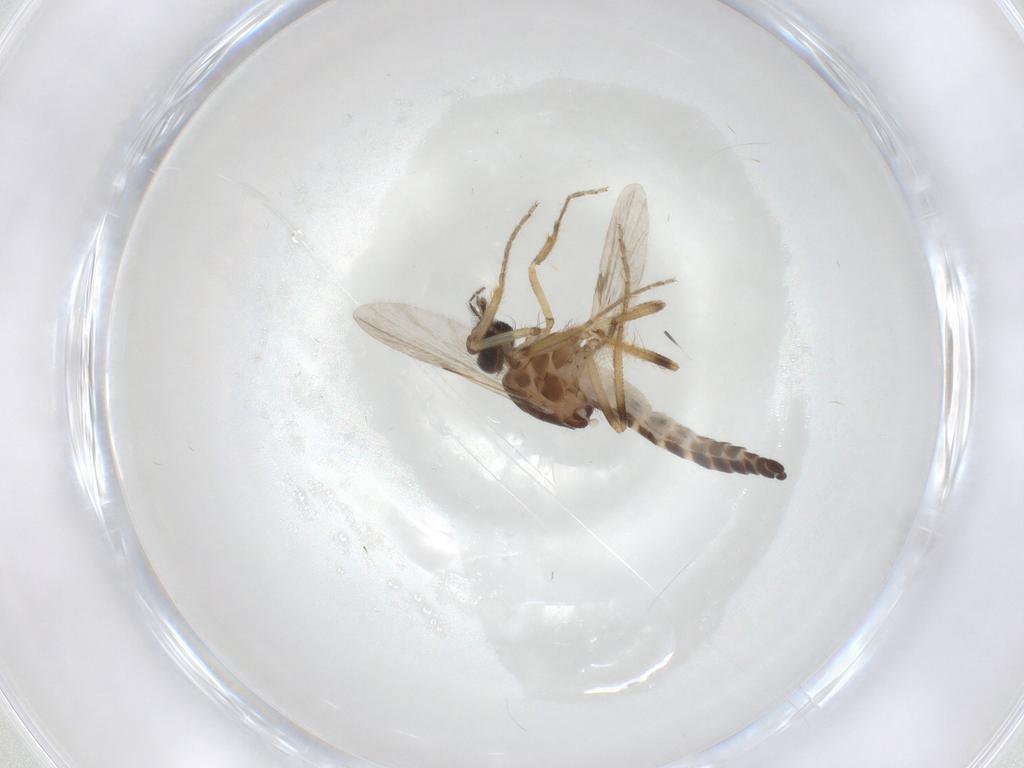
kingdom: Animalia
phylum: Arthropoda
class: Insecta
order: Diptera
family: Ceratopogonidae
